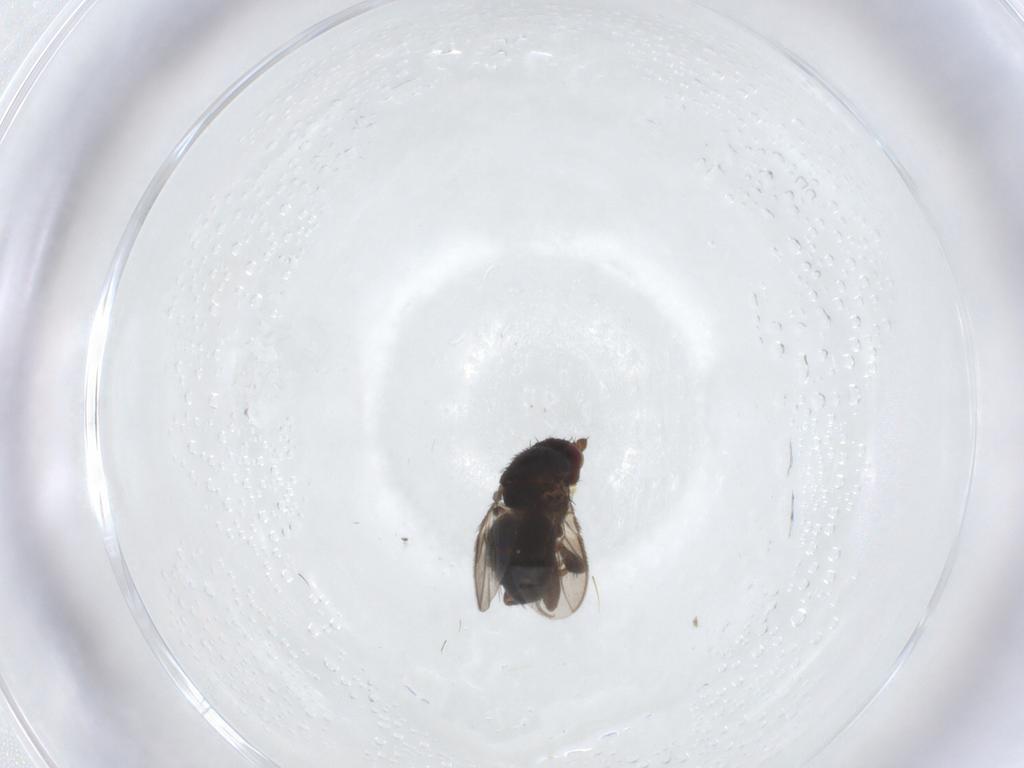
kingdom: Animalia
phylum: Arthropoda
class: Insecta
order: Diptera
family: Sphaeroceridae
